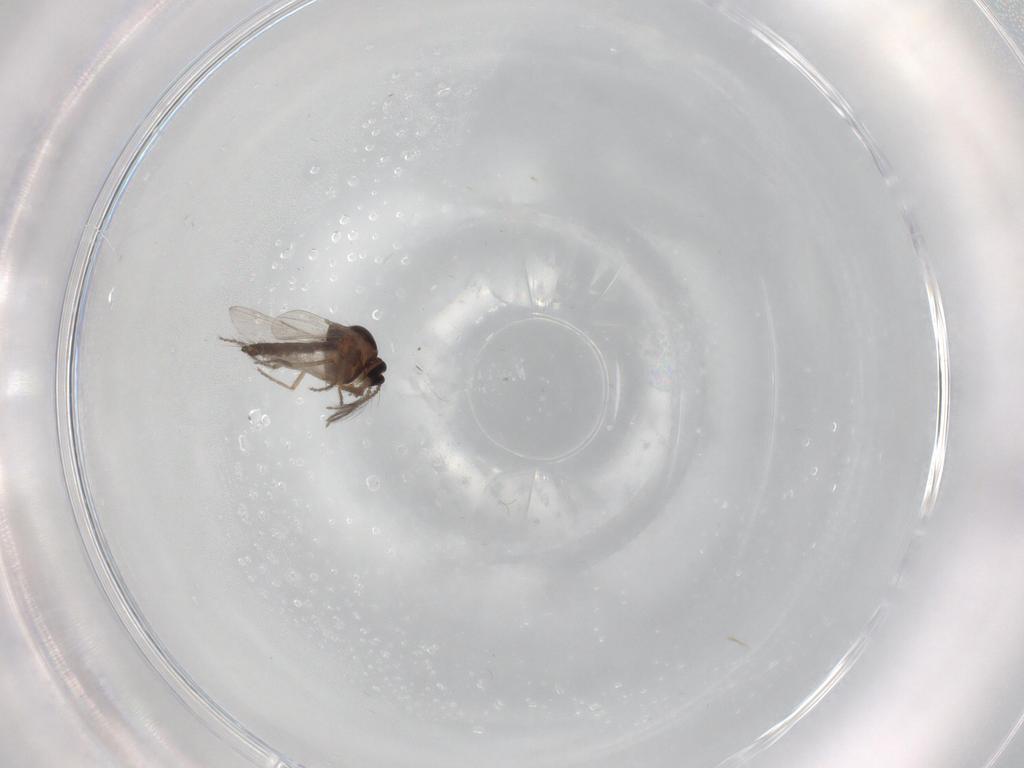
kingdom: Animalia
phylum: Arthropoda
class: Insecta
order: Diptera
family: Ceratopogonidae
